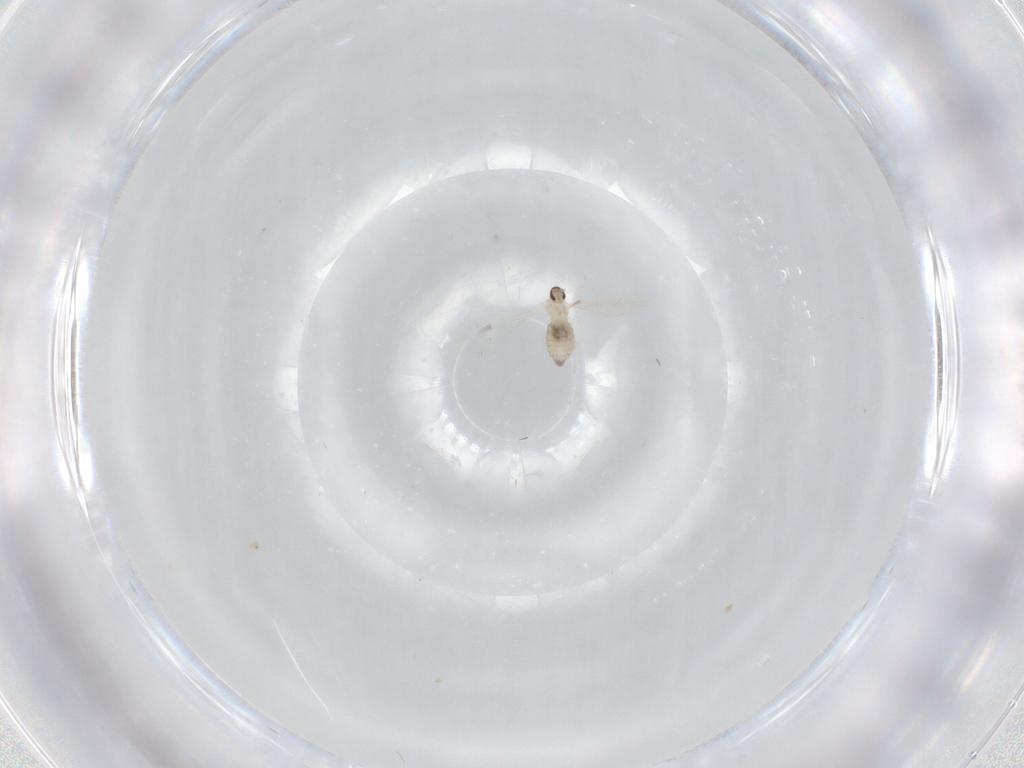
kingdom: Animalia
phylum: Arthropoda
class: Insecta
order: Diptera
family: Cecidomyiidae
